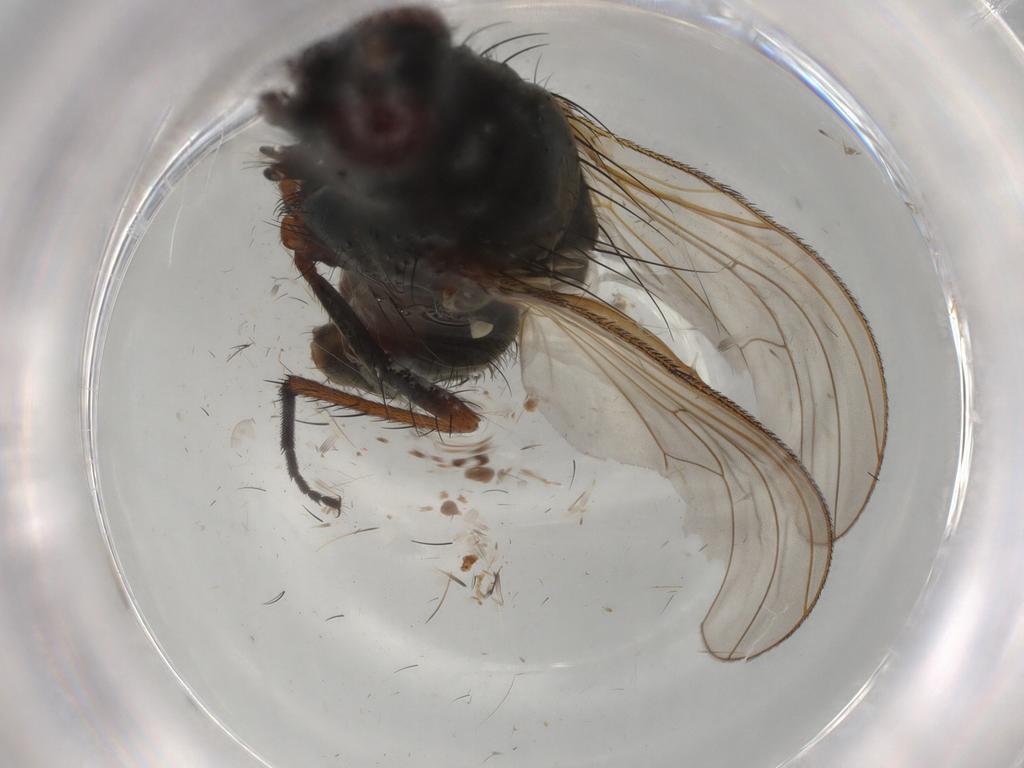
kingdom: Animalia
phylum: Arthropoda
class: Insecta
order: Diptera
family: Anthomyiidae
